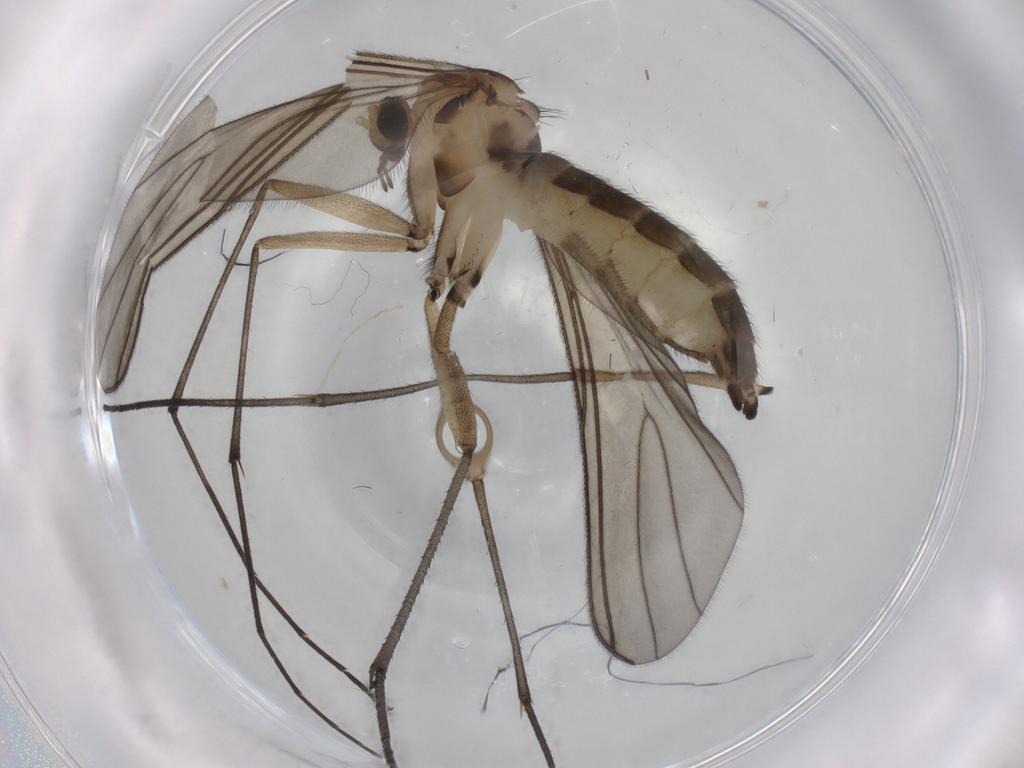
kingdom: Animalia
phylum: Arthropoda
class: Insecta
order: Diptera
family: Sciaridae
